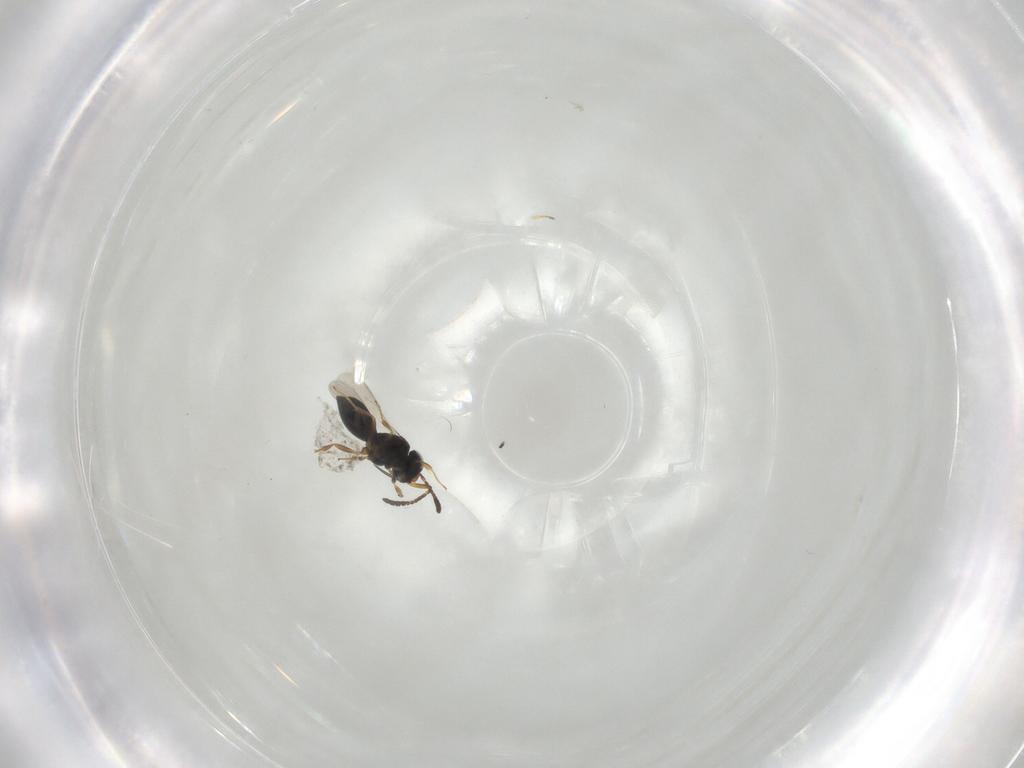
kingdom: Animalia
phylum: Arthropoda
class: Insecta
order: Hymenoptera
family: Scelionidae
